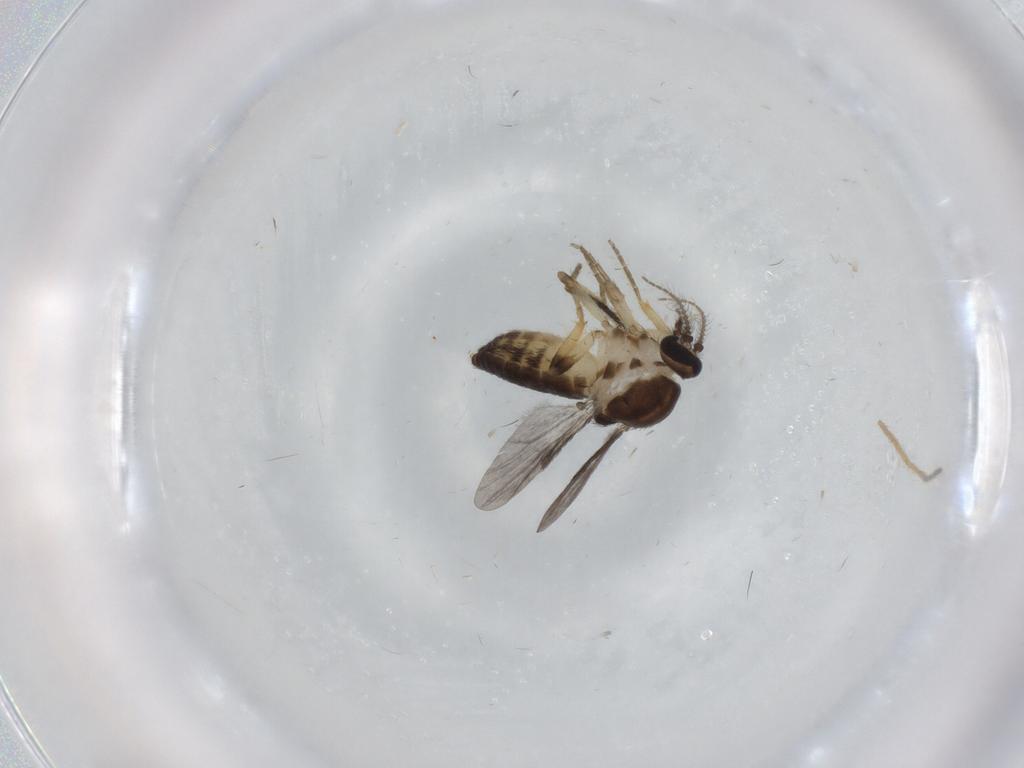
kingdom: Animalia
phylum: Arthropoda
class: Insecta
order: Diptera
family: Ceratopogonidae
